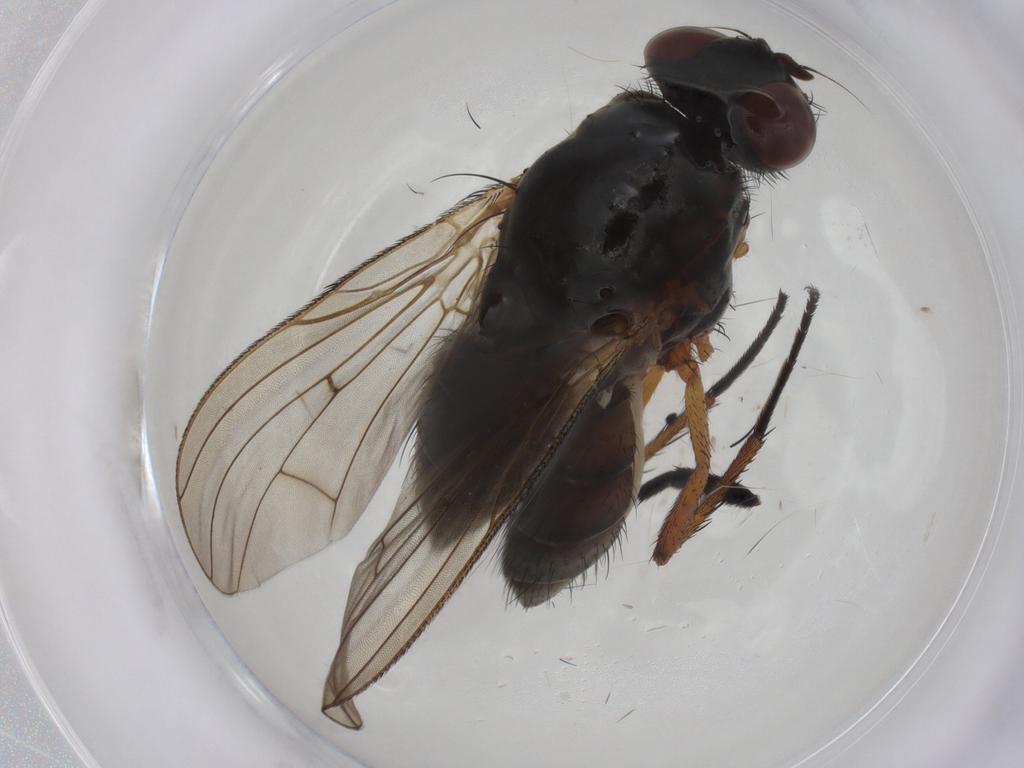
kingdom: Animalia
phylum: Arthropoda
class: Insecta
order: Diptera
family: Anthomyiidae
